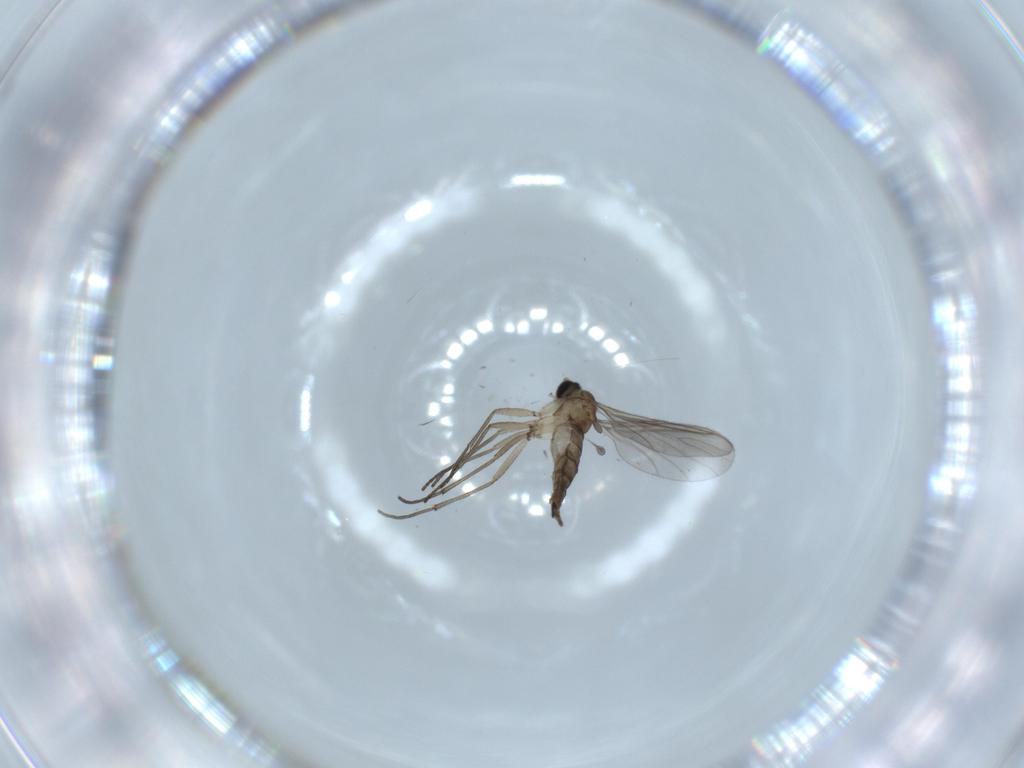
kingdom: Animalia
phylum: Arthropoda
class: Insecta
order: Diptera
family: Sciaridae
